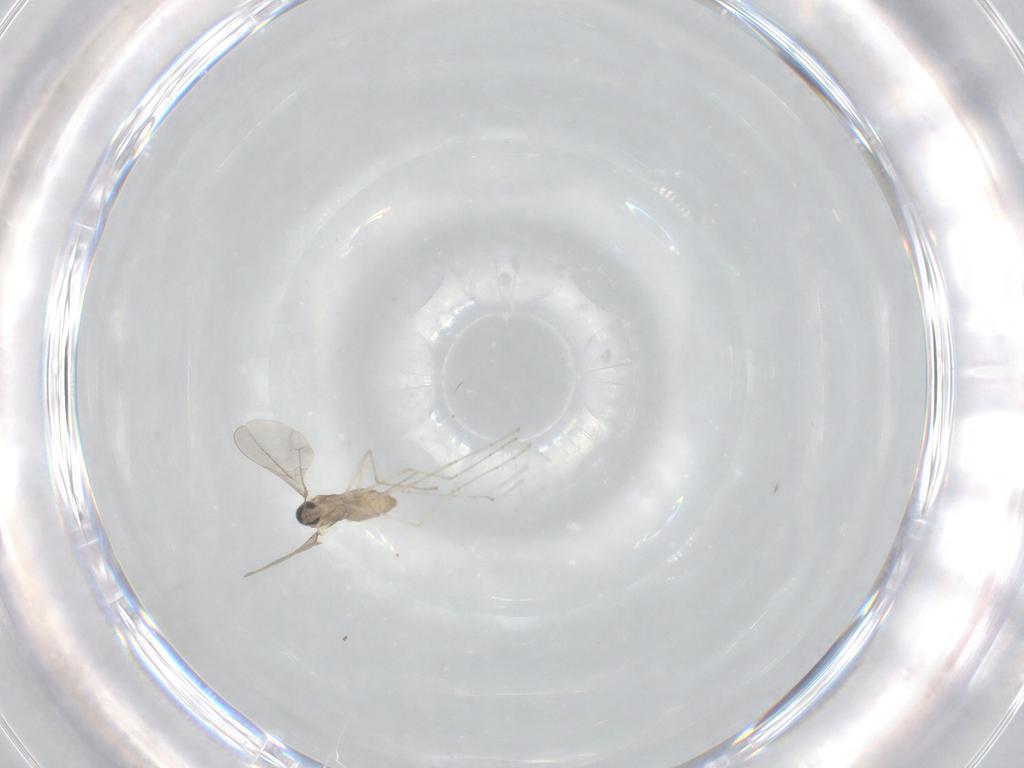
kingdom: Animalia
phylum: Arthropoda
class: Insecta
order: Diptera
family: Cecidomyiidae
